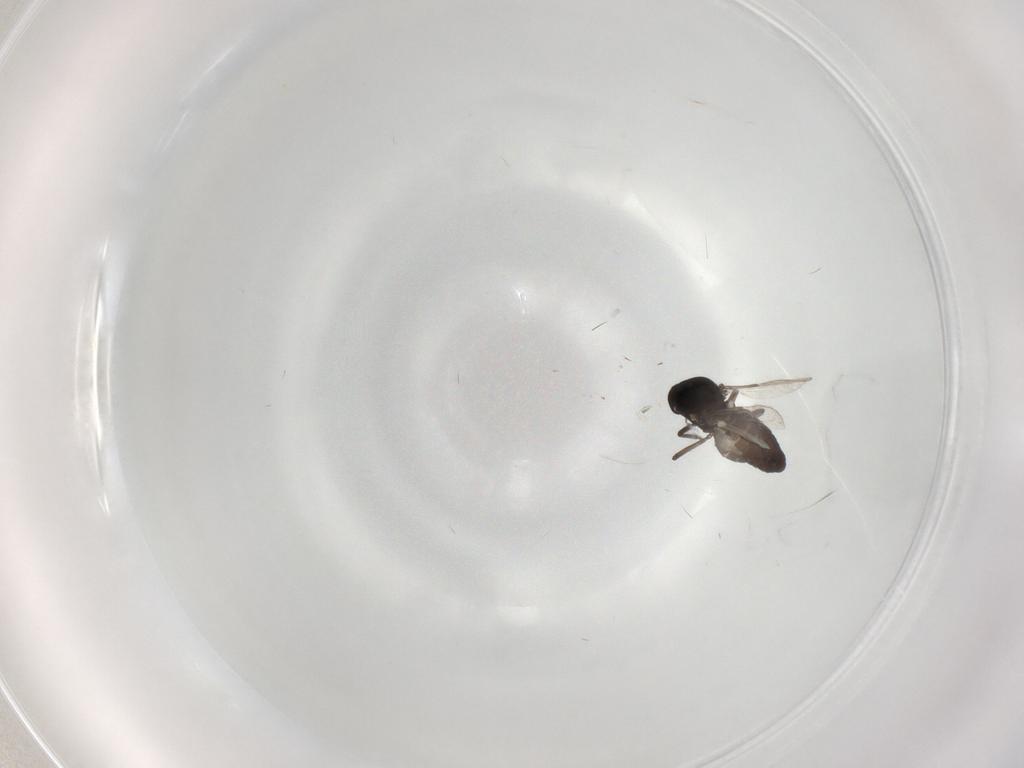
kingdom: Animalia
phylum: Arthropoda
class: Insecta
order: Diptera
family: Ceratopogonidae
